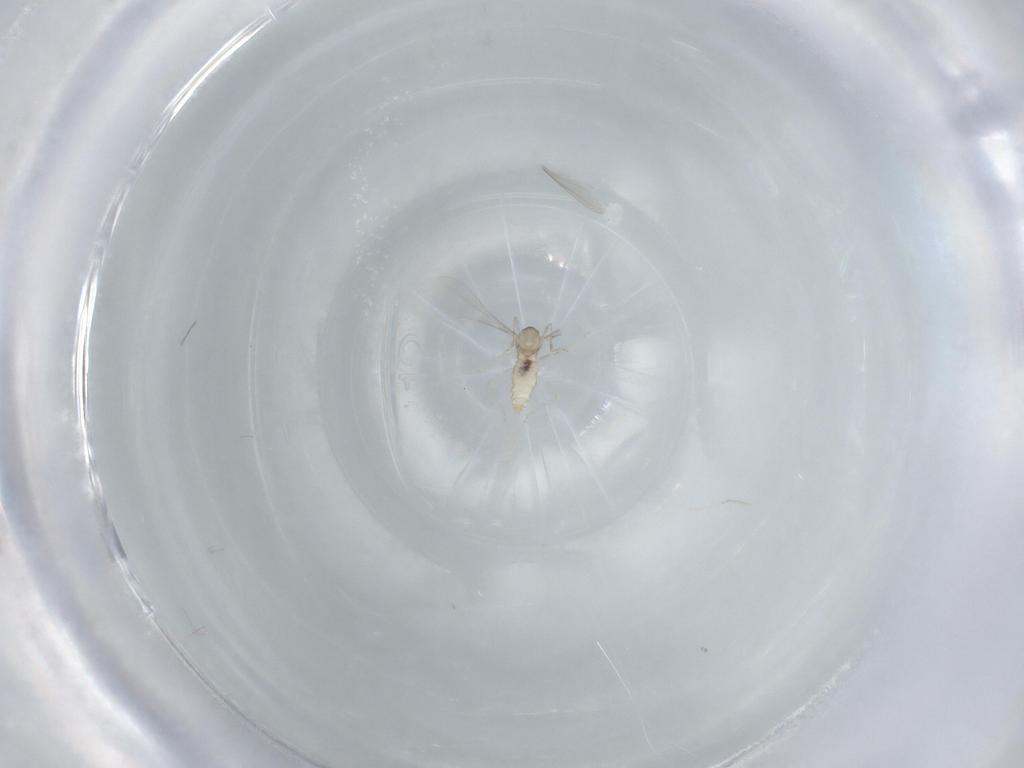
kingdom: Animalia
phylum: Arthropoda
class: Insecta
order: Diptera
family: Cecidomyiidae
